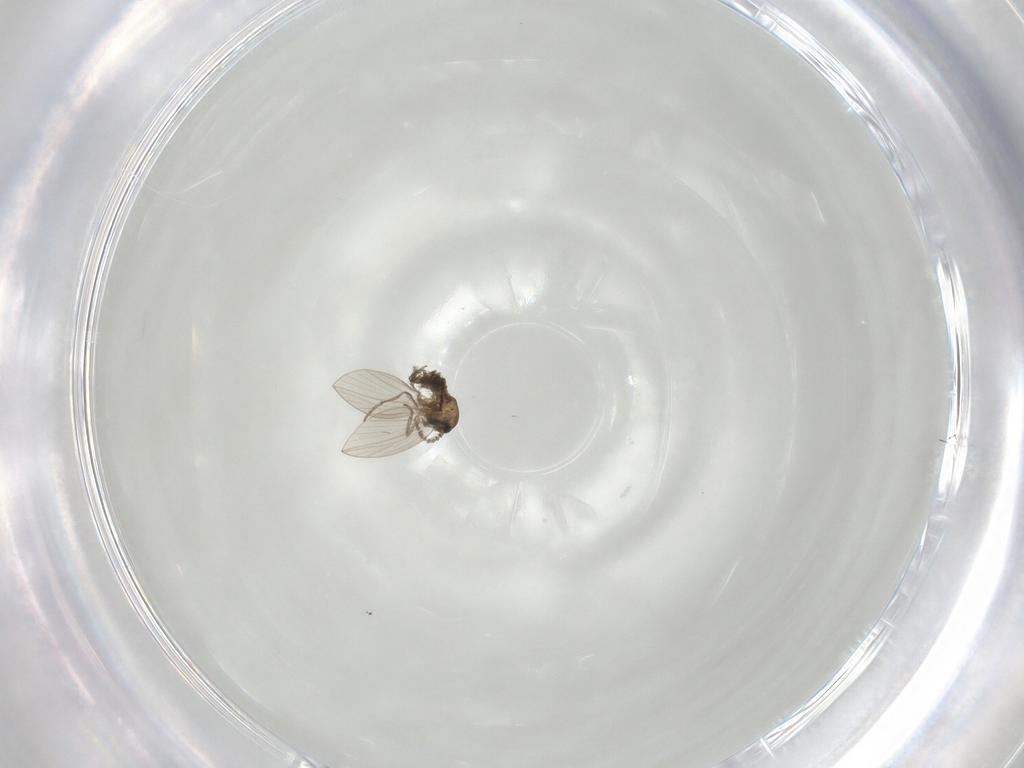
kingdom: Animalia
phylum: Arthropoda
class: Insecta
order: Diptera
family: Psychodidae
